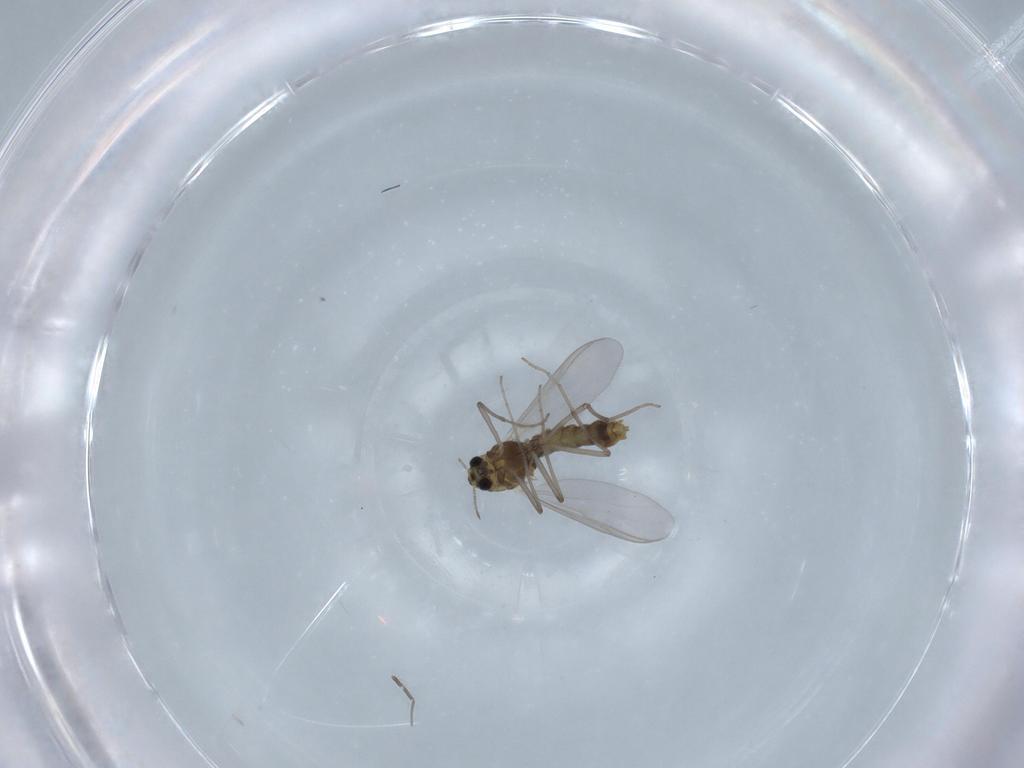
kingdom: Animalia
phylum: Arthropoda
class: Insecta
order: Diptera
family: Chironomidae
